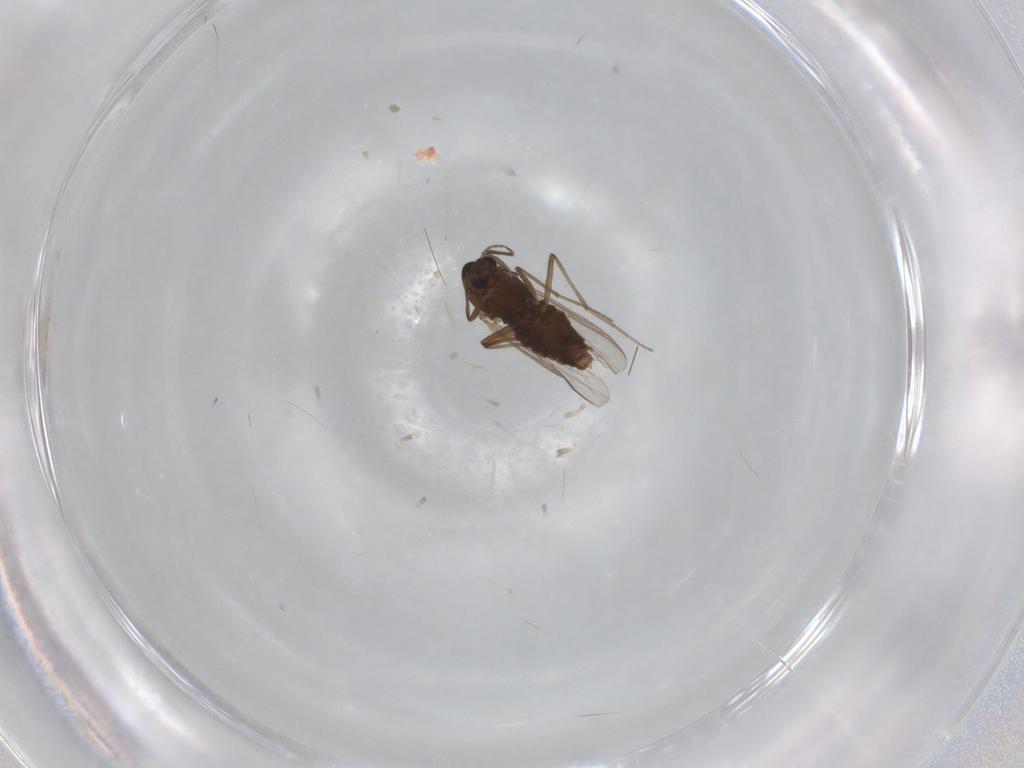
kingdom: Animalia
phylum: Arthropoda
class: Insecta
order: Diptera
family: Chironomidae
